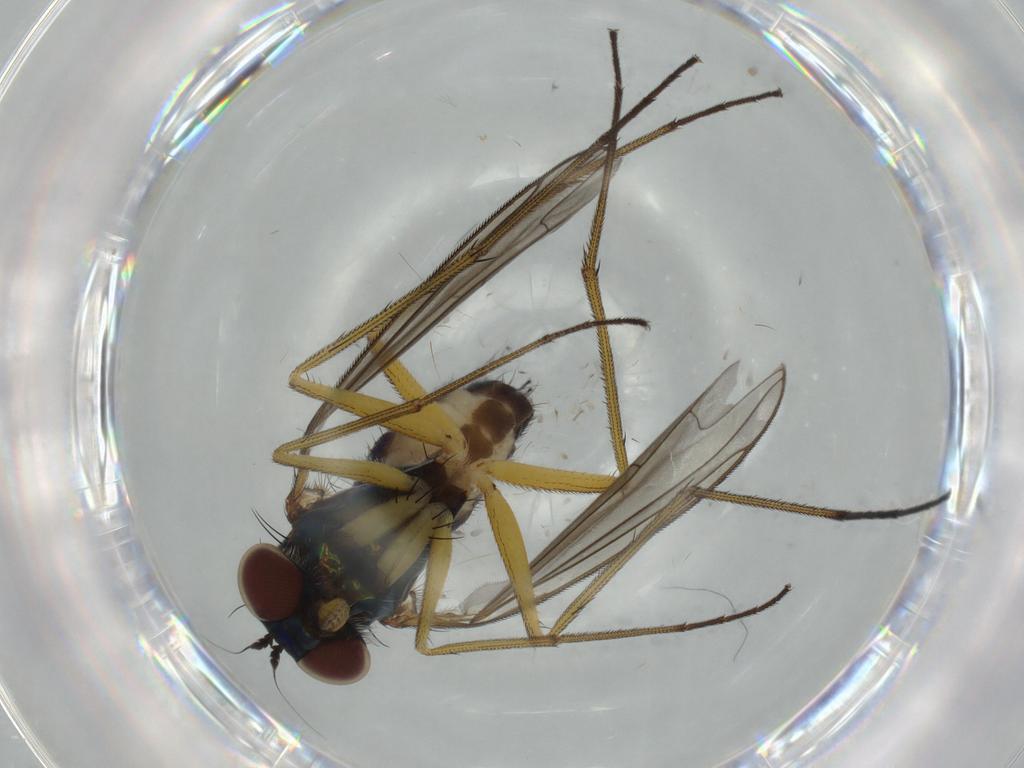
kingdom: Animalia
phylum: Arthropoda
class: Insecta
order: Diptera
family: Dolichopodidae
